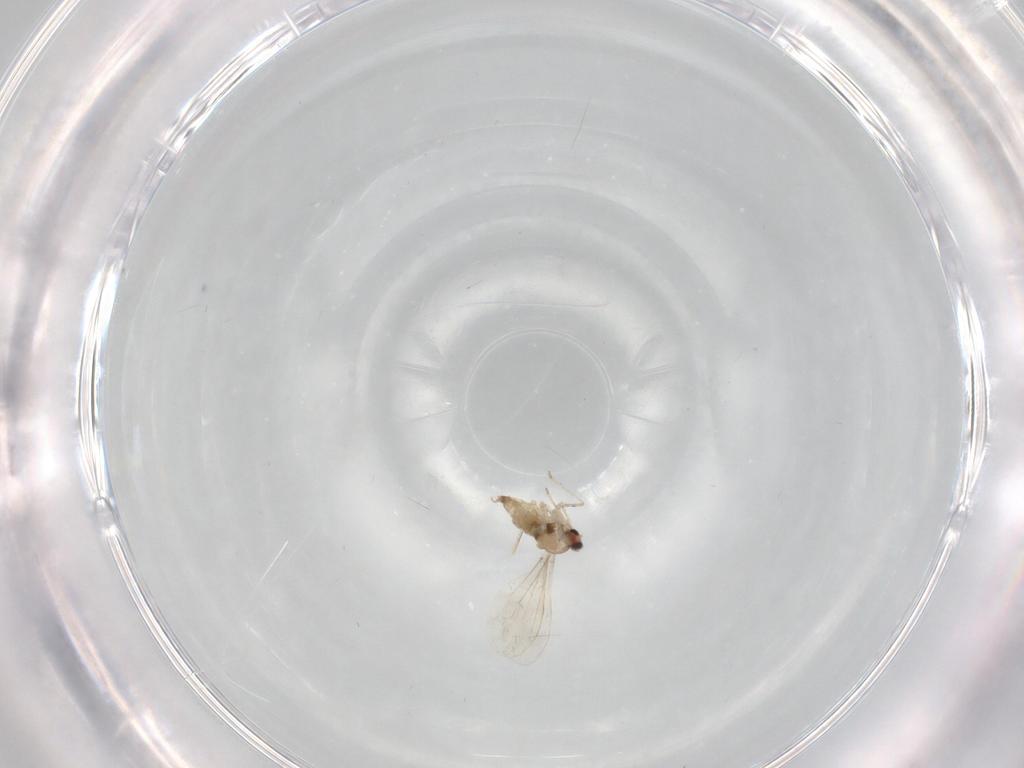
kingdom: Animalia
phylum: Arthropoda
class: Insecta
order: Diptera
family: Cecidomyiidae
